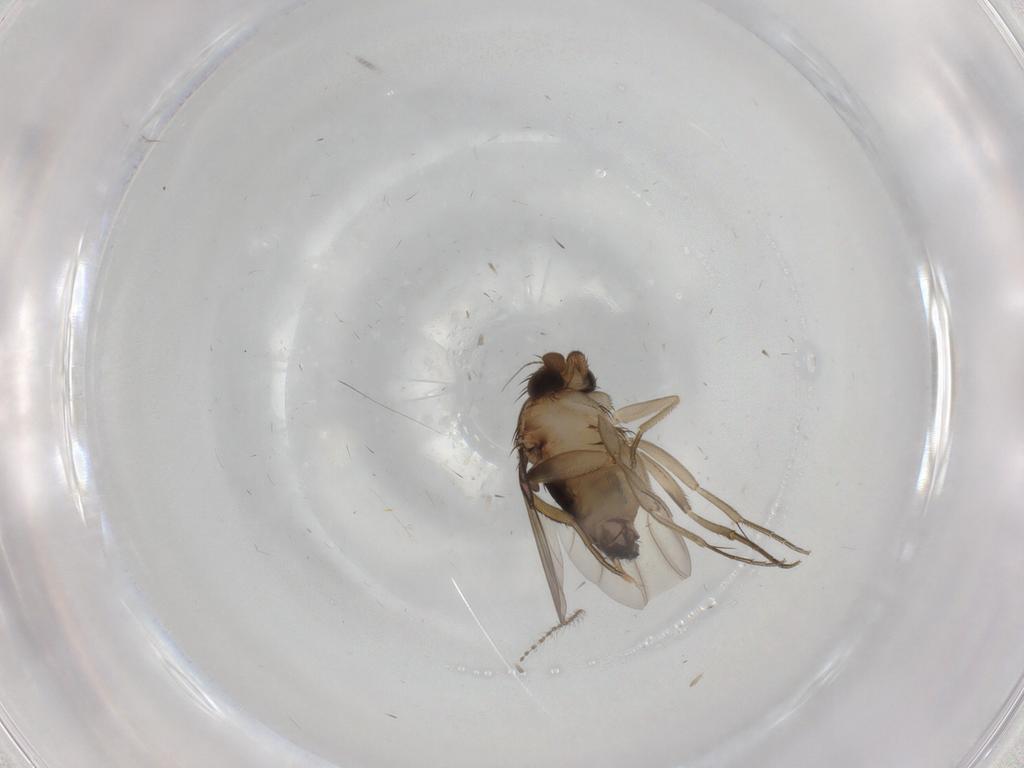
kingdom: Animalia
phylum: Arthropoda
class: Insecta
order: Diptera
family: Phoridae
